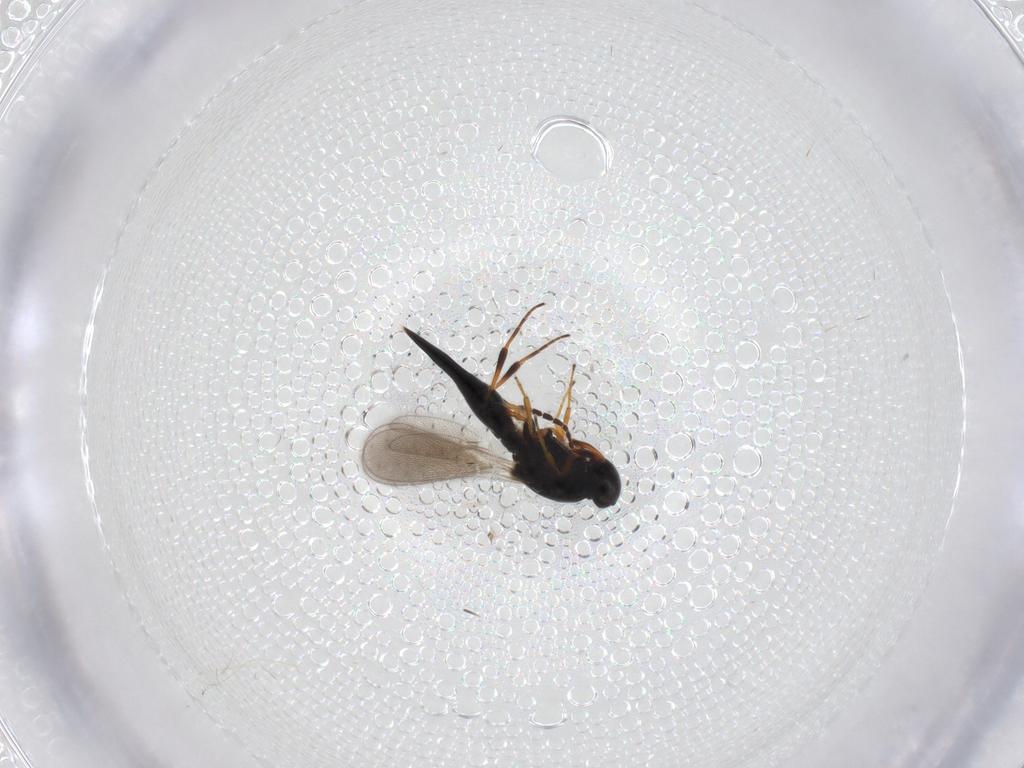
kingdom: Animalia
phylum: Arthropoda
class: Insecta
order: Hymenoptera
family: Platygastridae
